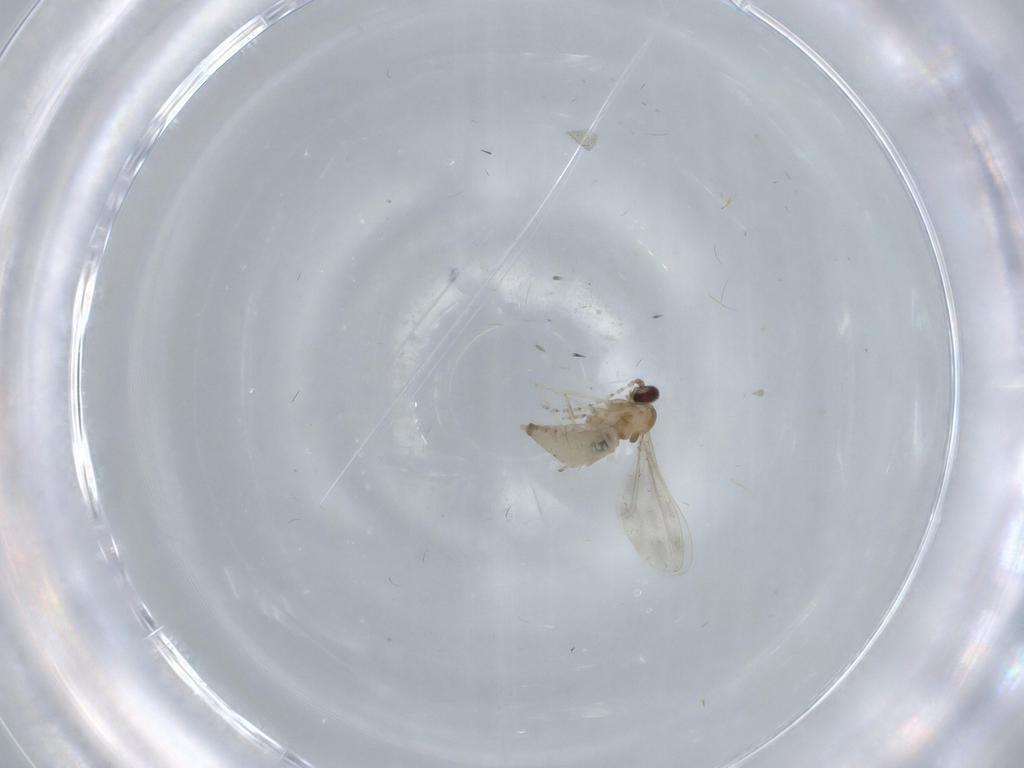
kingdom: Animalia
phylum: Arthropoda
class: Insecta
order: Diptera
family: Cecidomyiidae
